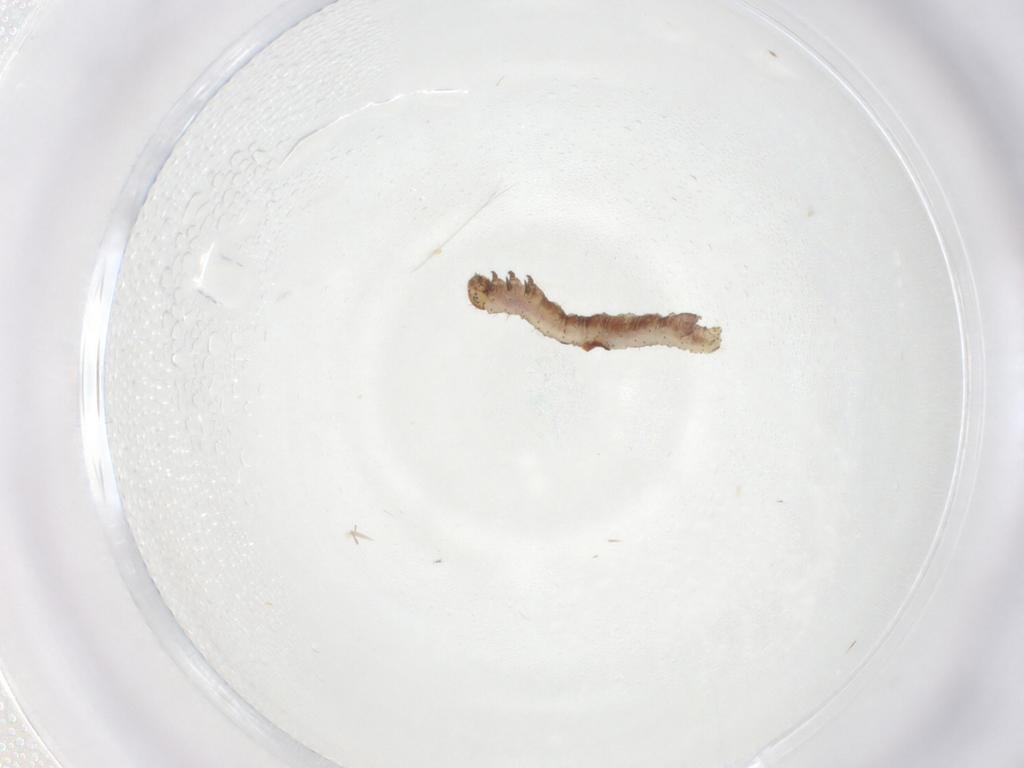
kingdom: Animalia
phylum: Arthropoda
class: Insecta
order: Lepidoptera
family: Geometridae
